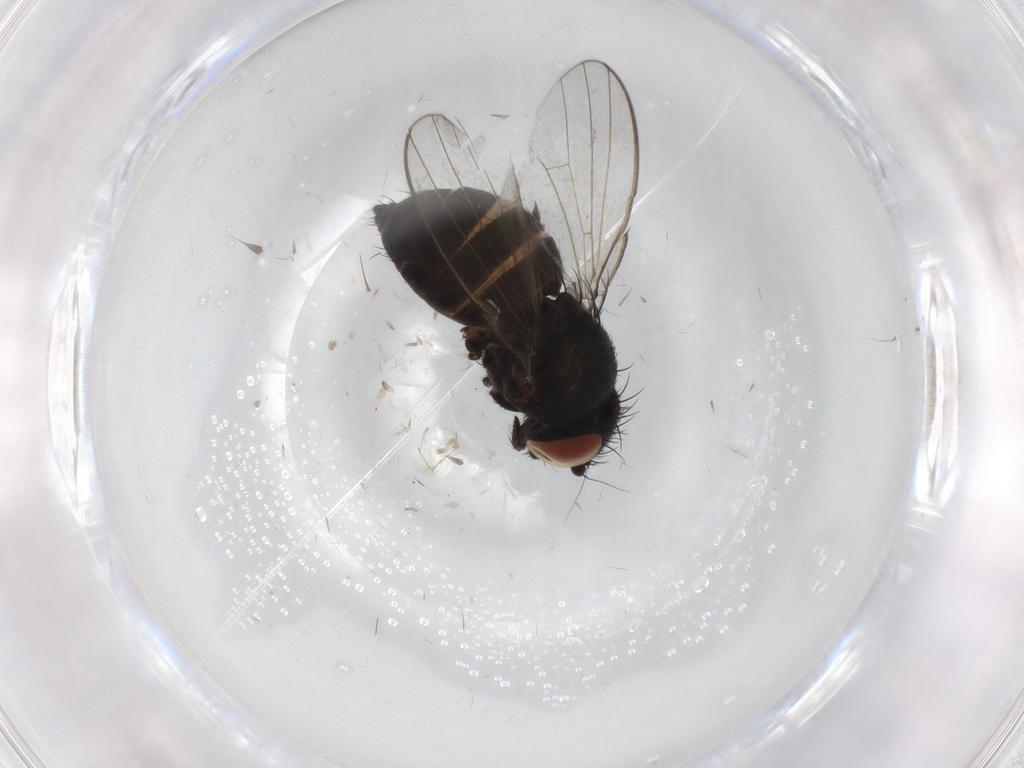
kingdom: Animalia
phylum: Arthropoda
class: Insecta
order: Diptera
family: Milichiidae
